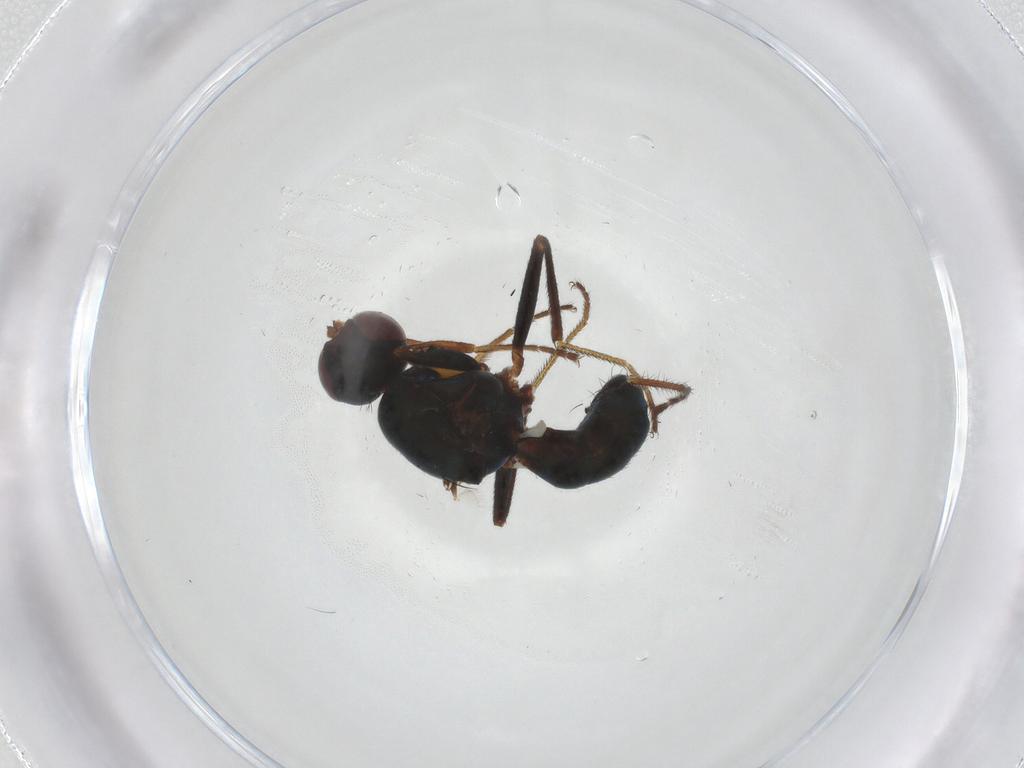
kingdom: Animalia
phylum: Arthropoda
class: Insecta
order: Diptera
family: Sepsidae
